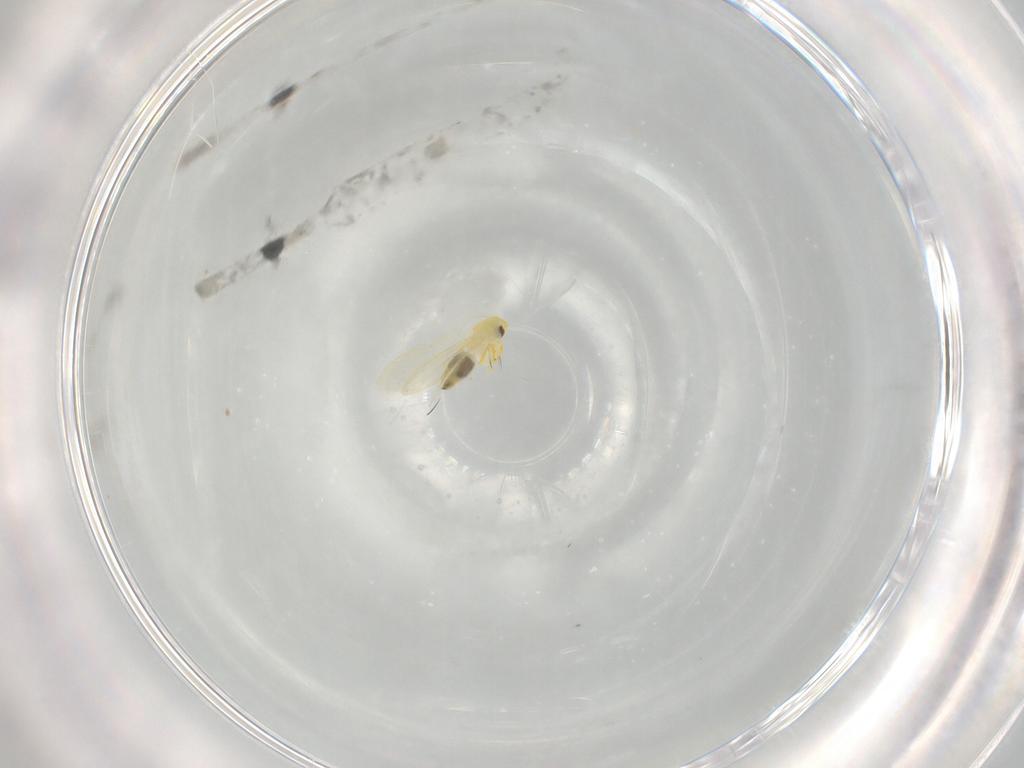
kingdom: Animalia
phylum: Arthropoda
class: Insecta
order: Hemiptera
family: Aleyrodidae
